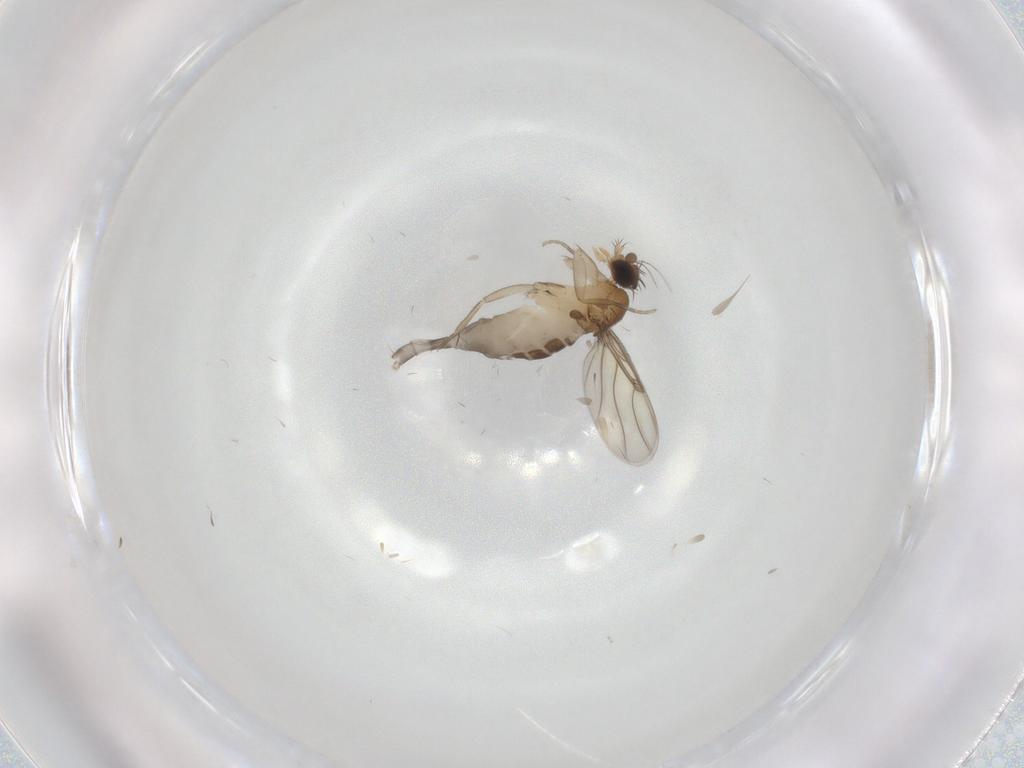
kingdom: Animalia
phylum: Arthropoda
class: Insecta
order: Diptera
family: Phoridae
